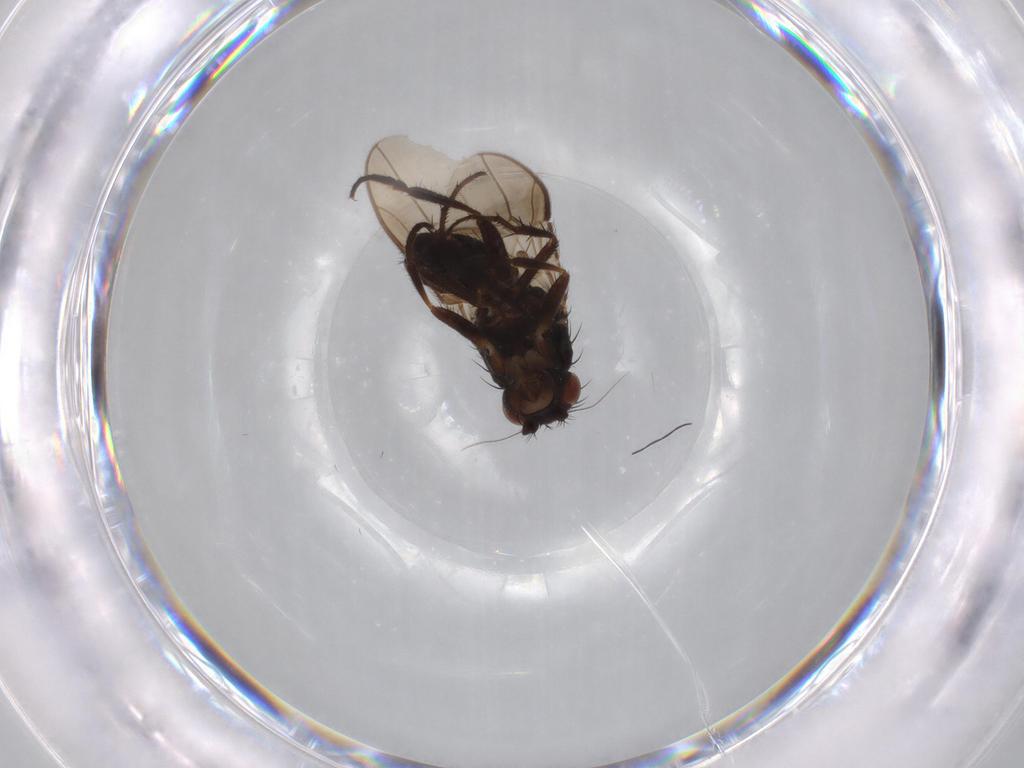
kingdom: Animalia
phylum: Arthropoda
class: Insecta
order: Diptera
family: Sphaeroceridae
